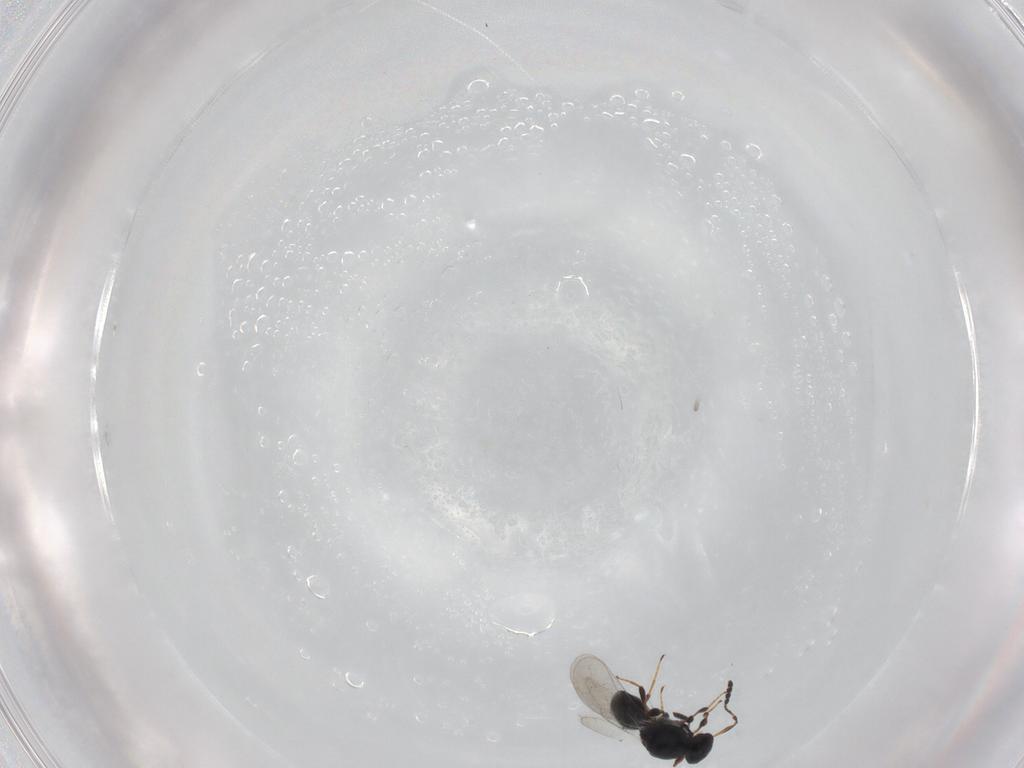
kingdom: Animalia
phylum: Arthropoda
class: Insecta
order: Hymenoptera
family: Platygastridae
